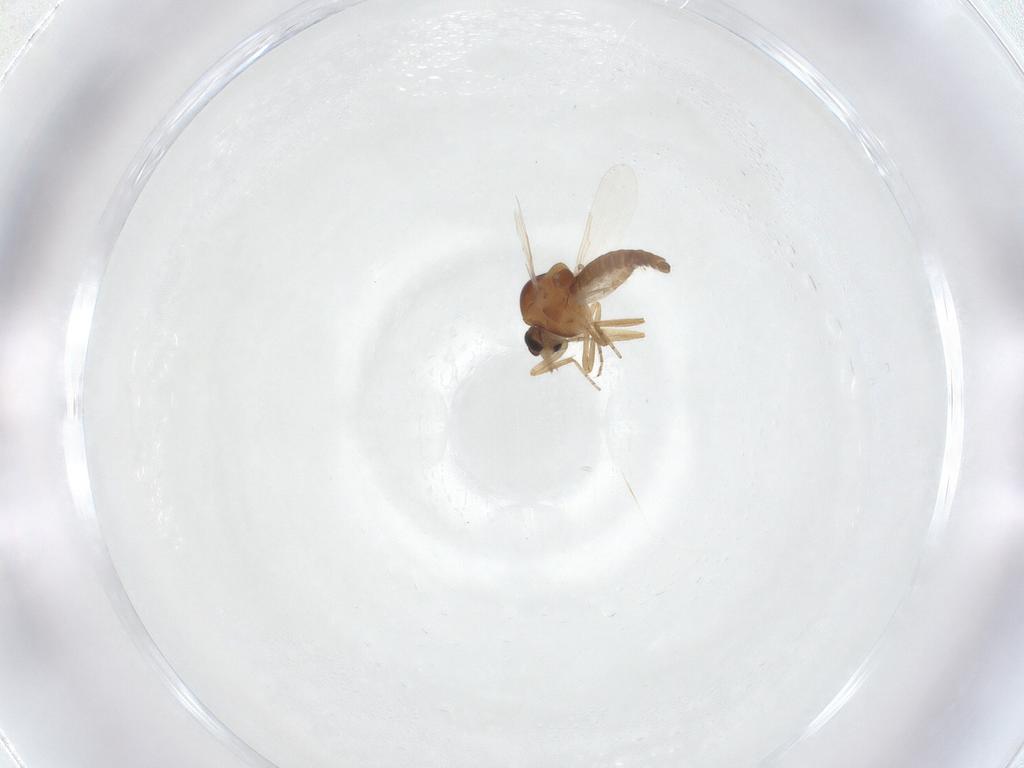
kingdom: Animalia
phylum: Arthropoda
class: Insecta
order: Diptera
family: Ceratopogonidae
